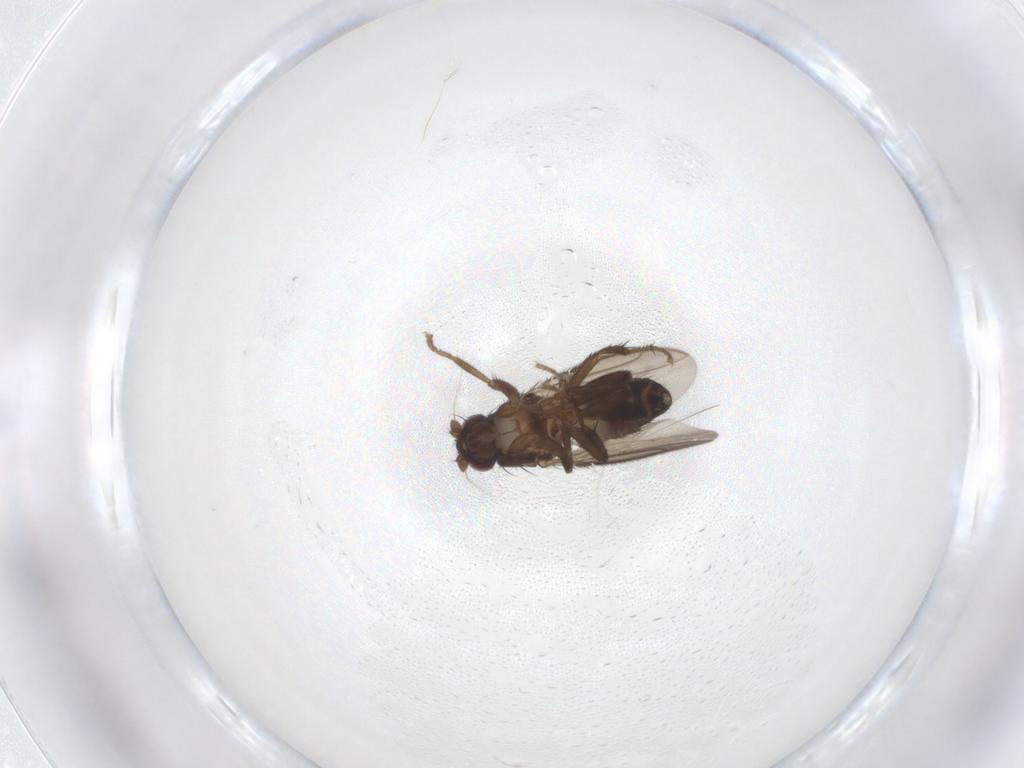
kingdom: Animalia
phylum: Arthropoda
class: Insecta
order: Diptera
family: Sphaeroceridae
